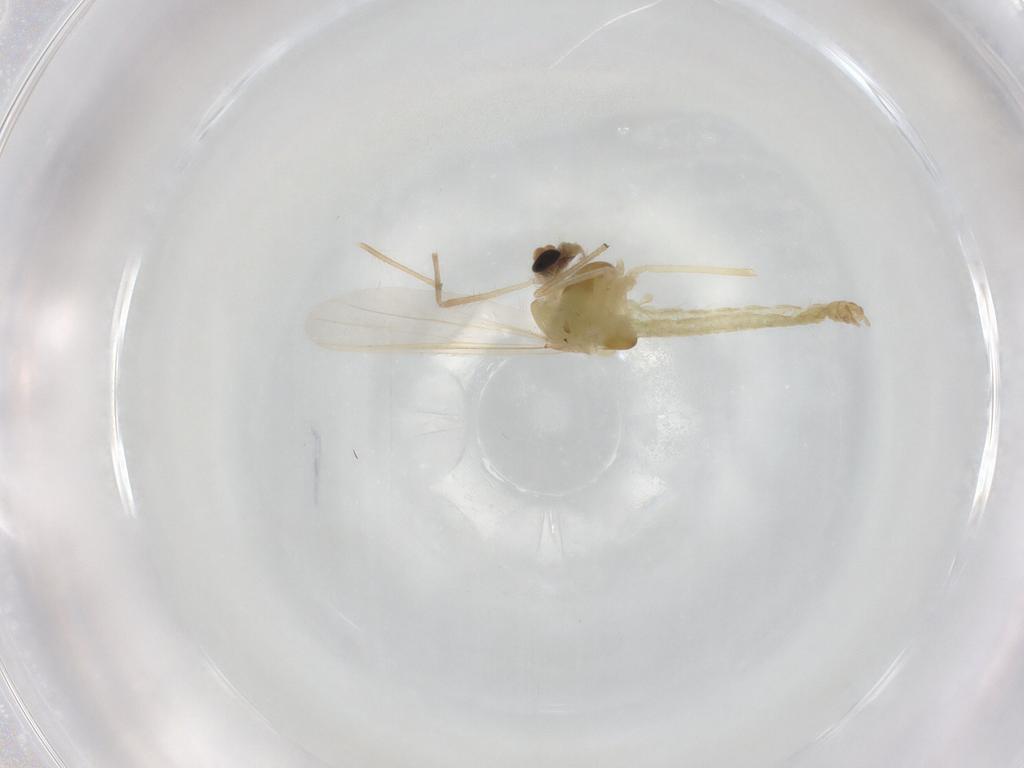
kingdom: Animalia
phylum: Arthropoda
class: Insecta
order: Diptera
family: Chironomidae
